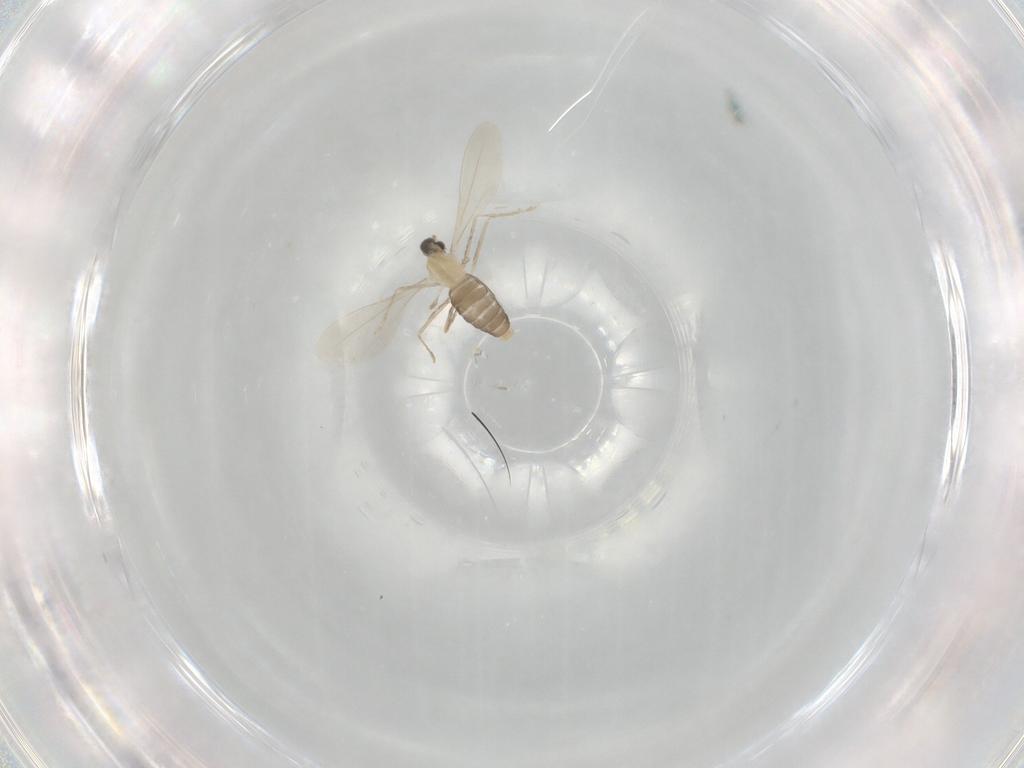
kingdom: Animalia
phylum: Arthropoda
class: Insecta
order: Diptera
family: Cecidomyiidae
